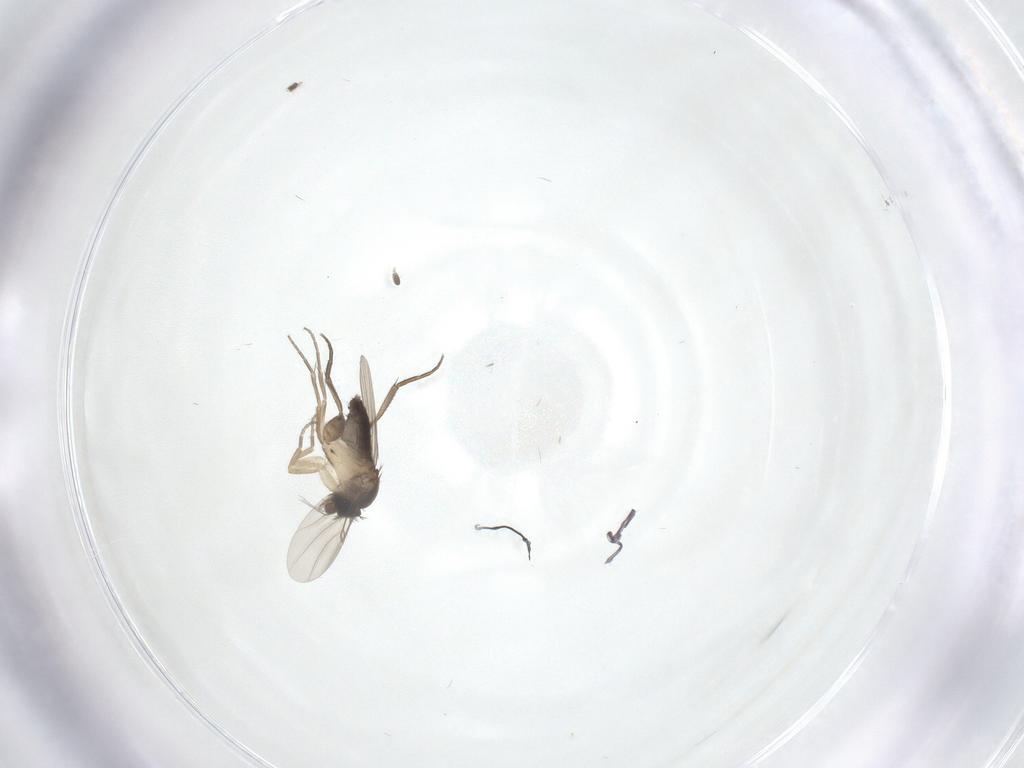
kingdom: Animalia
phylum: Arthropoda
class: Insecta
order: Diptera
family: Phoridae
